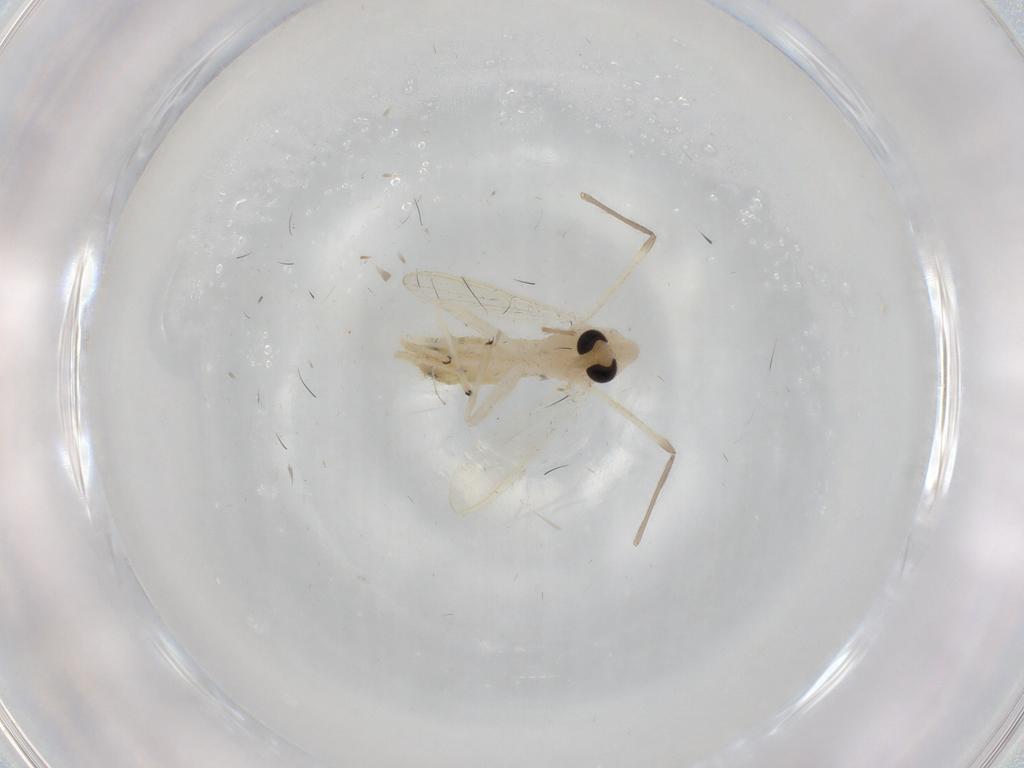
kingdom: Animalia
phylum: Arthropoda
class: Insecta
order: Diptera
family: Chironomidae
